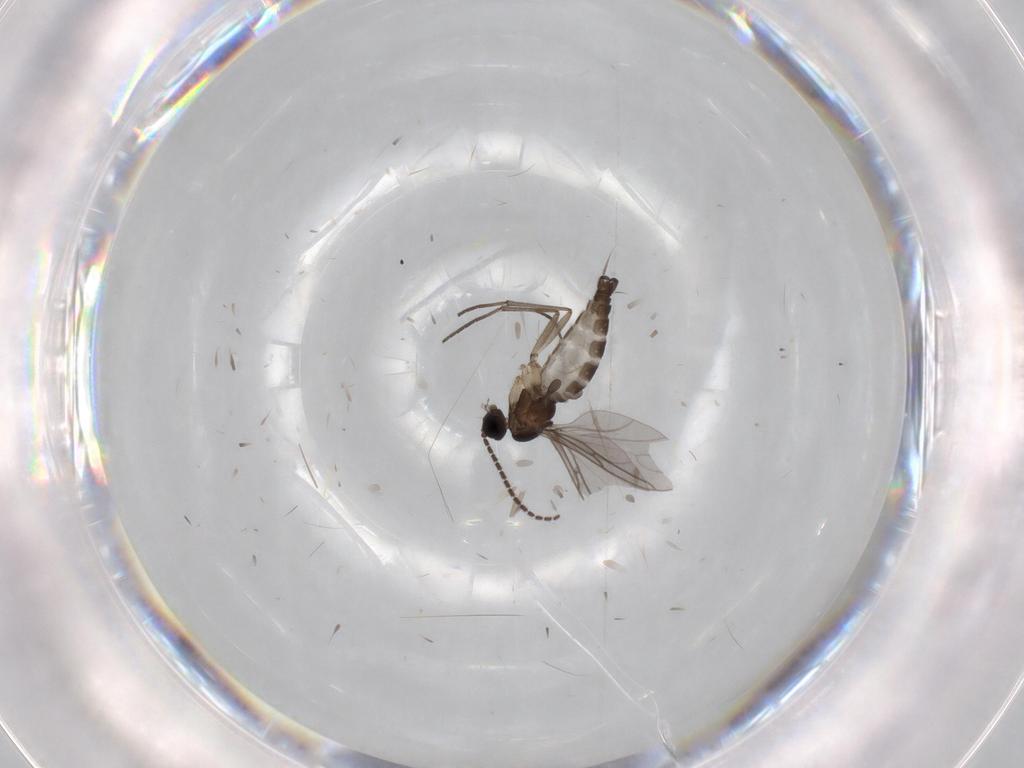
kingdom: Animalia
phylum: Arthropoda
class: Insecta
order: Diptera
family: Sciaridae
